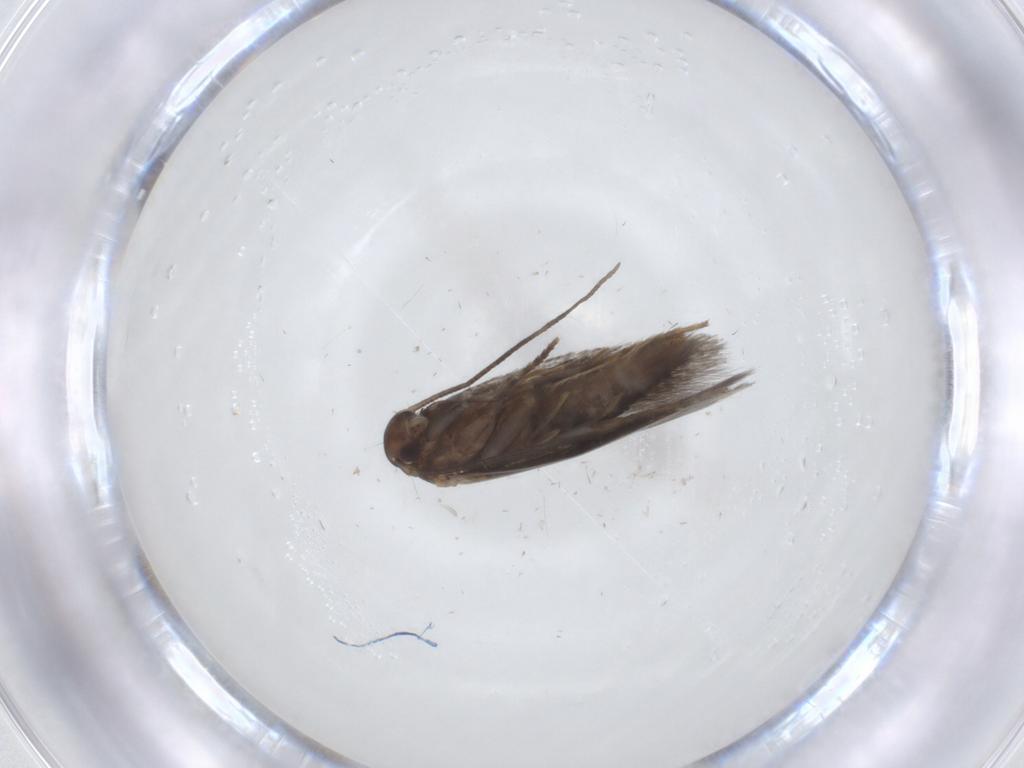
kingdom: Animalia
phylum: Arthropoda
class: Insecta
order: Lepidoptera
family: Elachistidae
